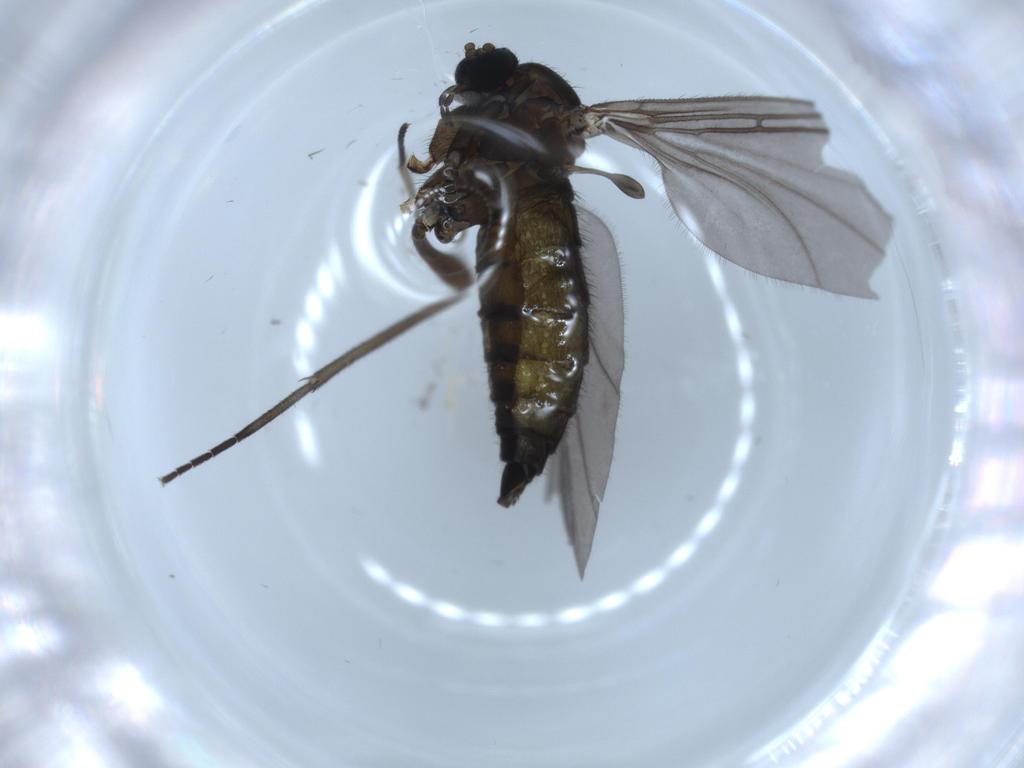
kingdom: Animalia
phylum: Arthropoda
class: Insecta
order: Diptera
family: Sciaridae
